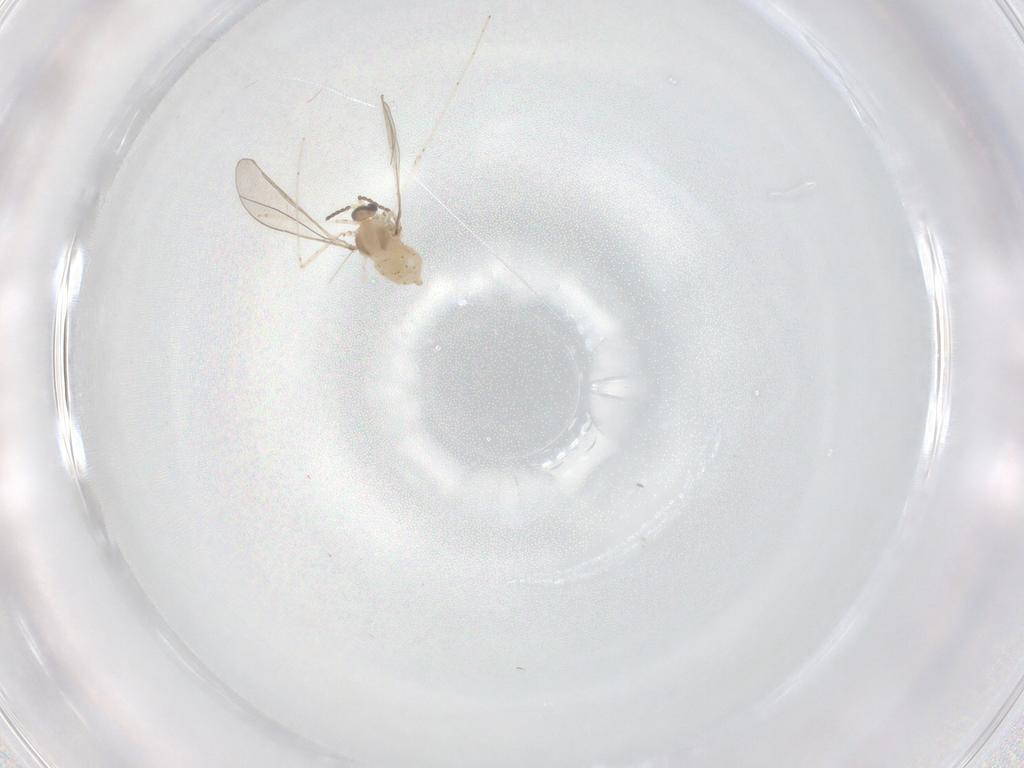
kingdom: Animalia
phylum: Arthropoda
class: Insecta
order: Diptera
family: Cecidomyiidae
